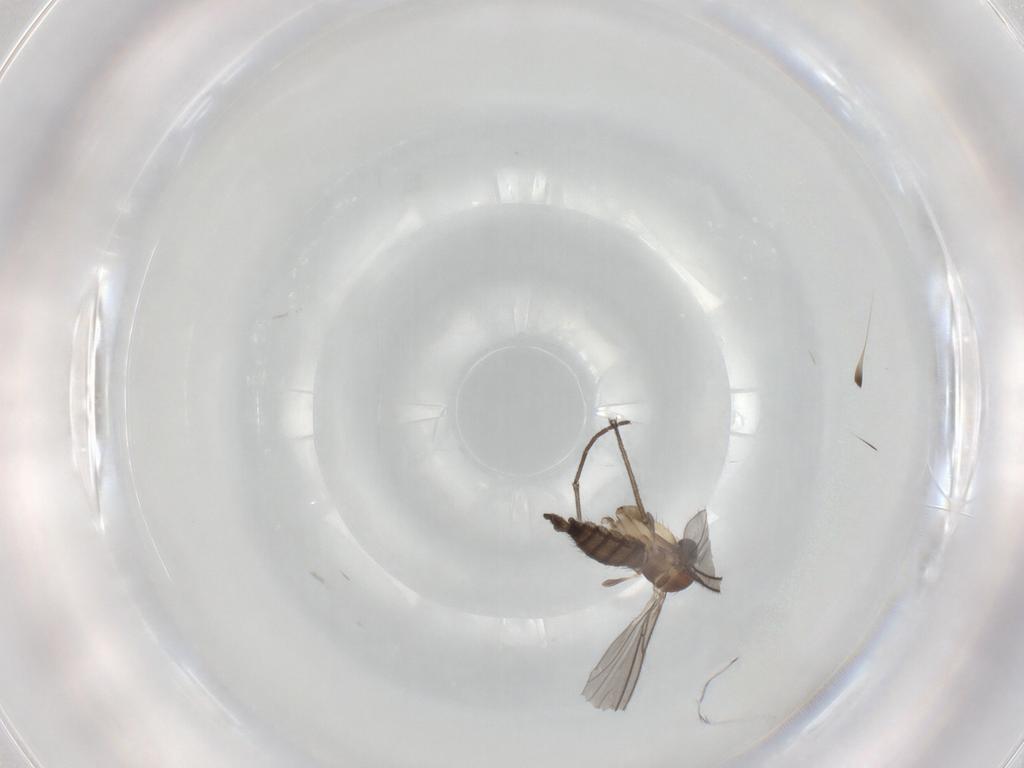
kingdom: Animalia
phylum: Arthropoda
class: Insecta
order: Diptera
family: Phoridae
